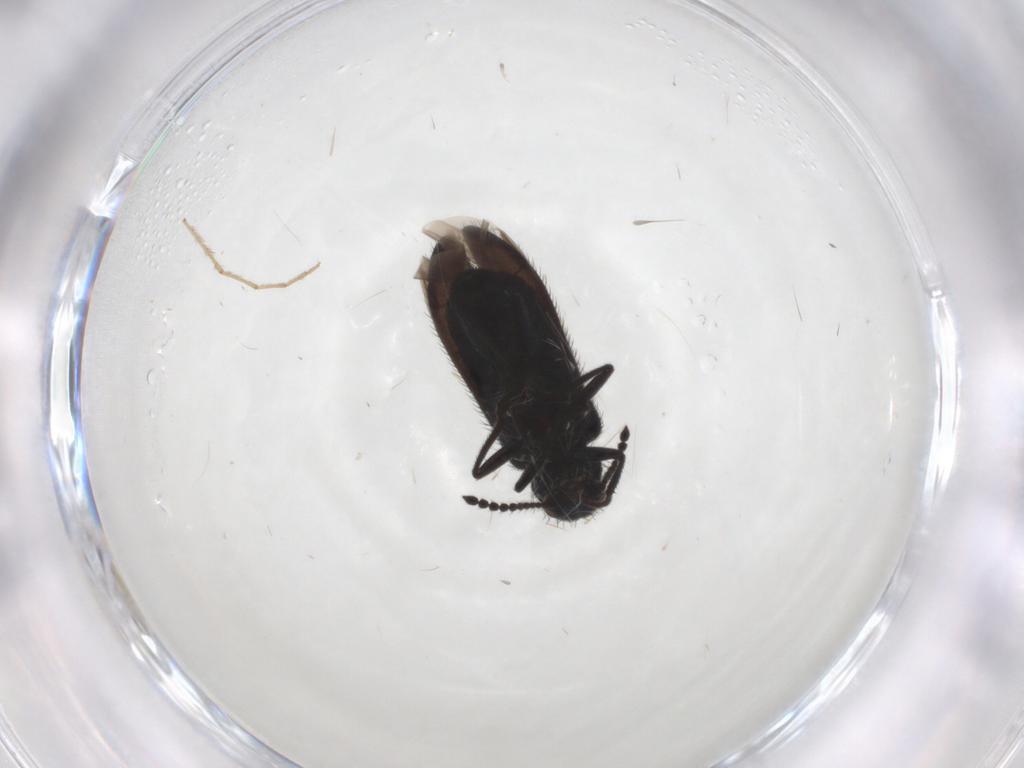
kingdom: Animalia
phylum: Arthropoda
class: Insecta
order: Coleoptera
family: Melyridae
